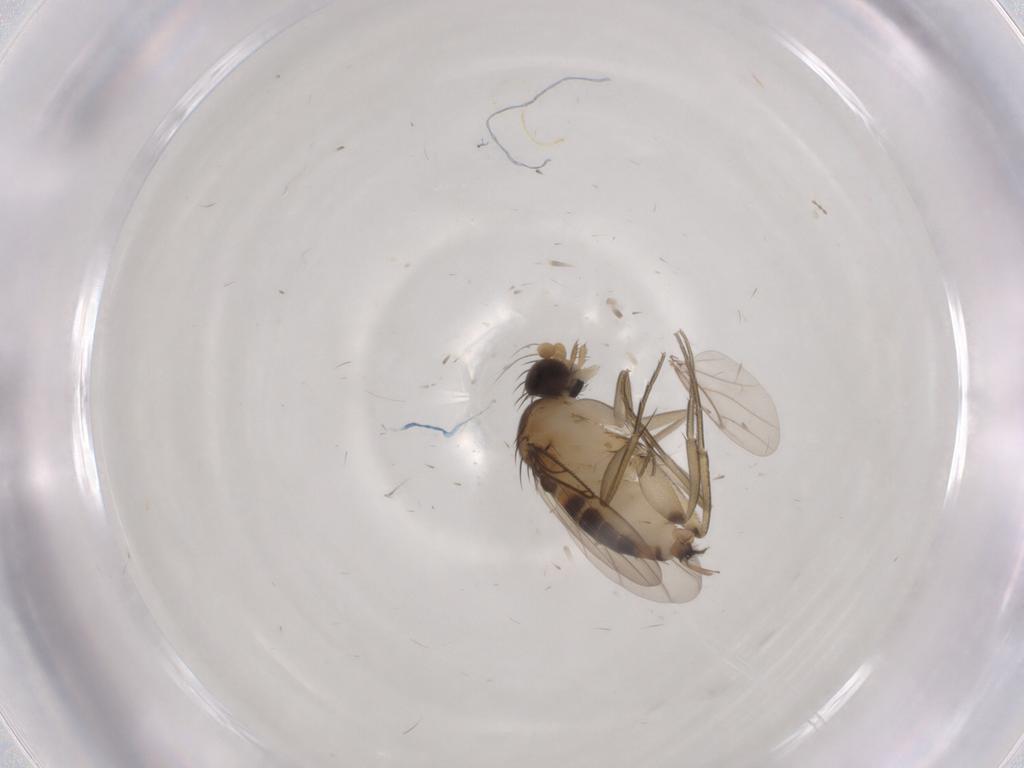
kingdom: Animalia
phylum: Arthropoda
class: Insecta
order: Diptera
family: Phoridae
